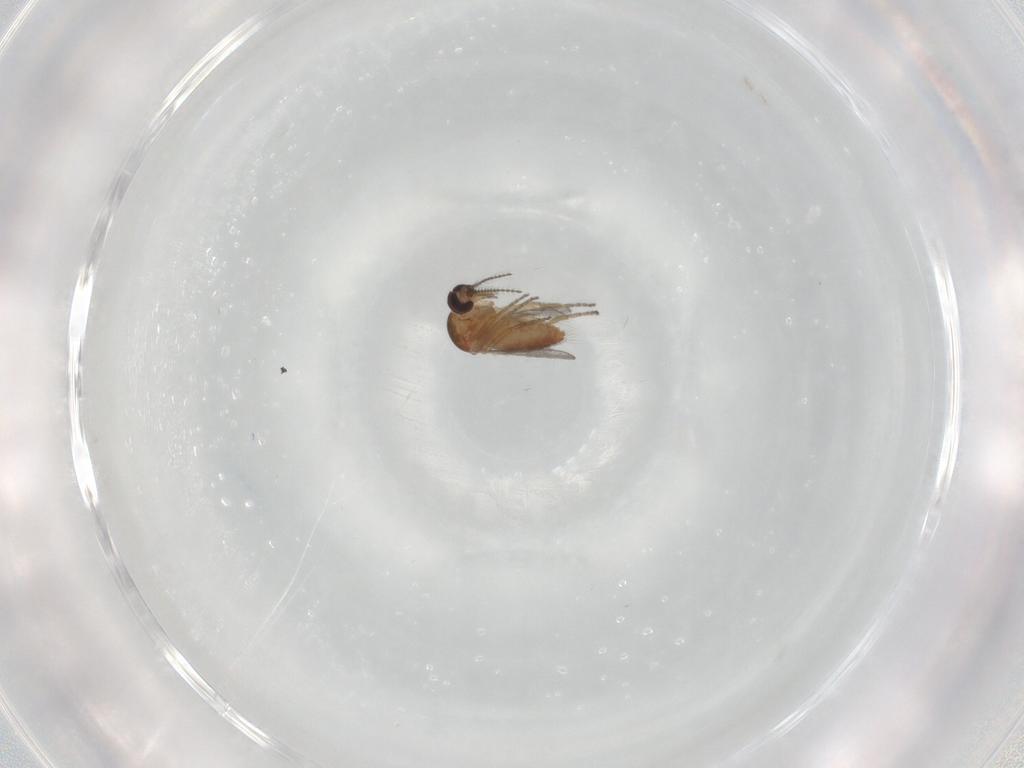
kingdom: Animalia
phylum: Arthropoda
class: Insecta
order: Diptera
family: Ceratopogonidae
